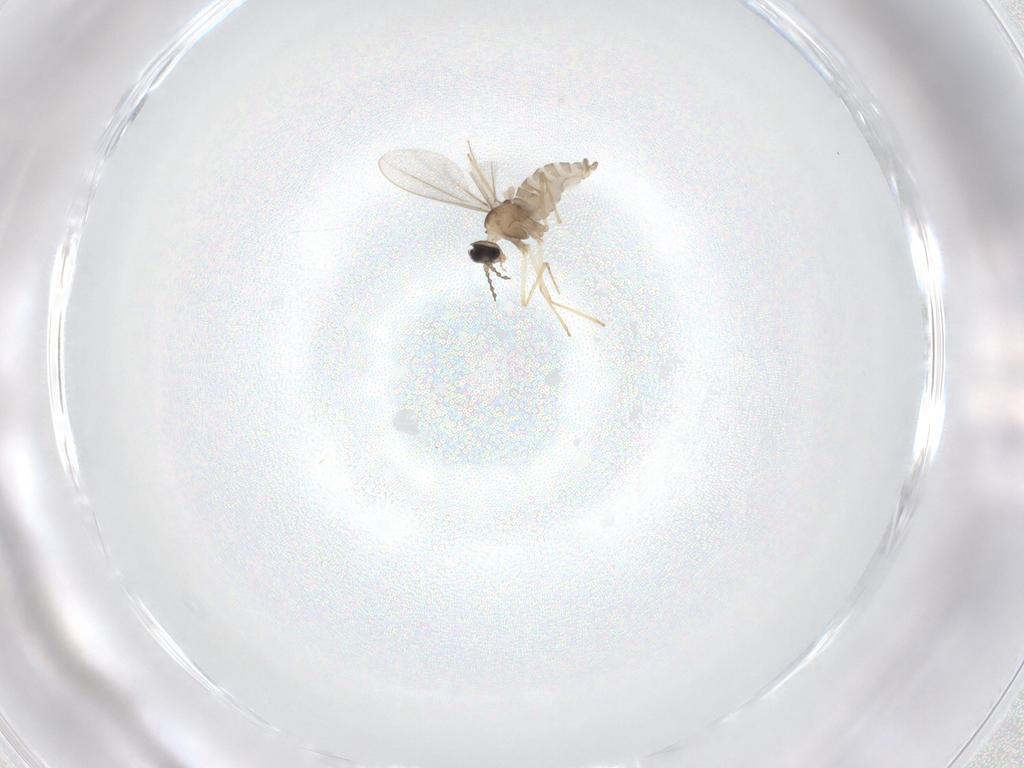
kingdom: Animalia
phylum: Arthropoda
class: Insecta
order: Diptera
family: Cecidomyiidae
